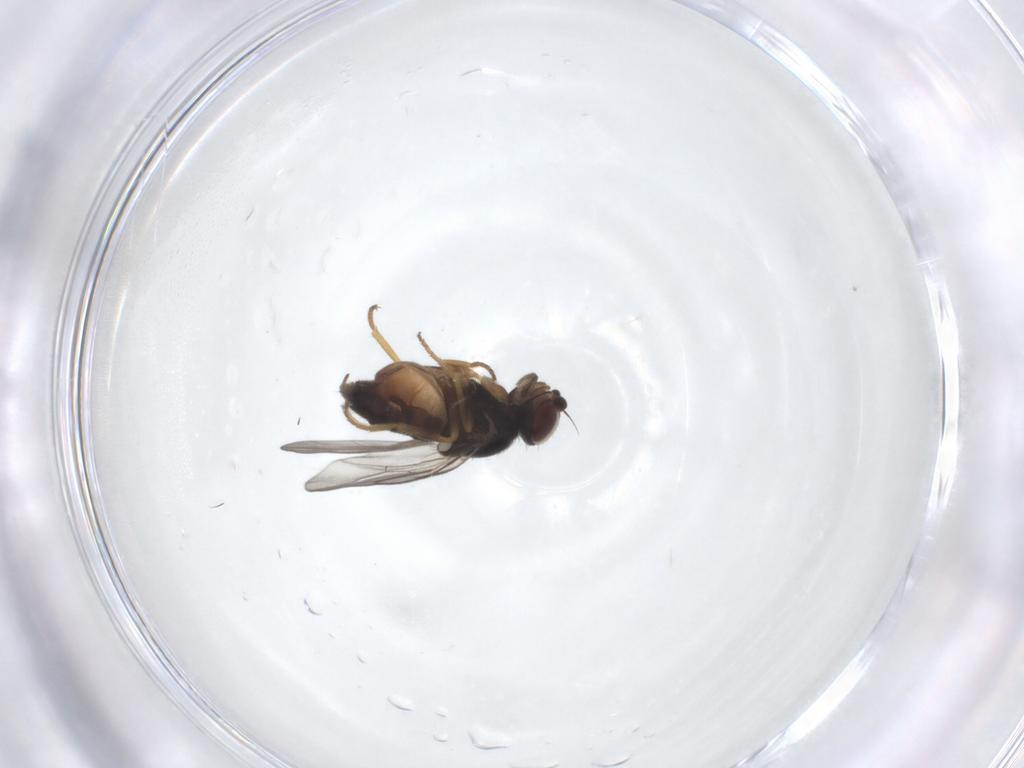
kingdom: Animalia
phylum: Arthropoda
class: Insecta
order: Diptera
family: Chloropidae
